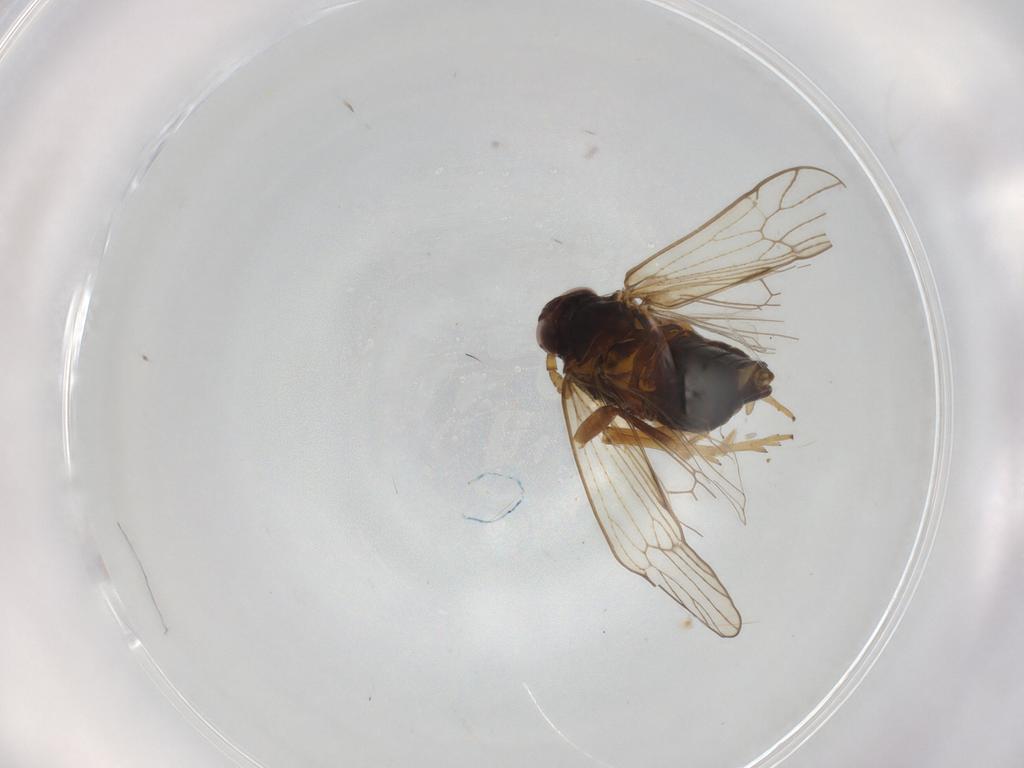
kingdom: Animalia
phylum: Arthropoda
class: Insecta
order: Hemiptera
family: Delphacidae
